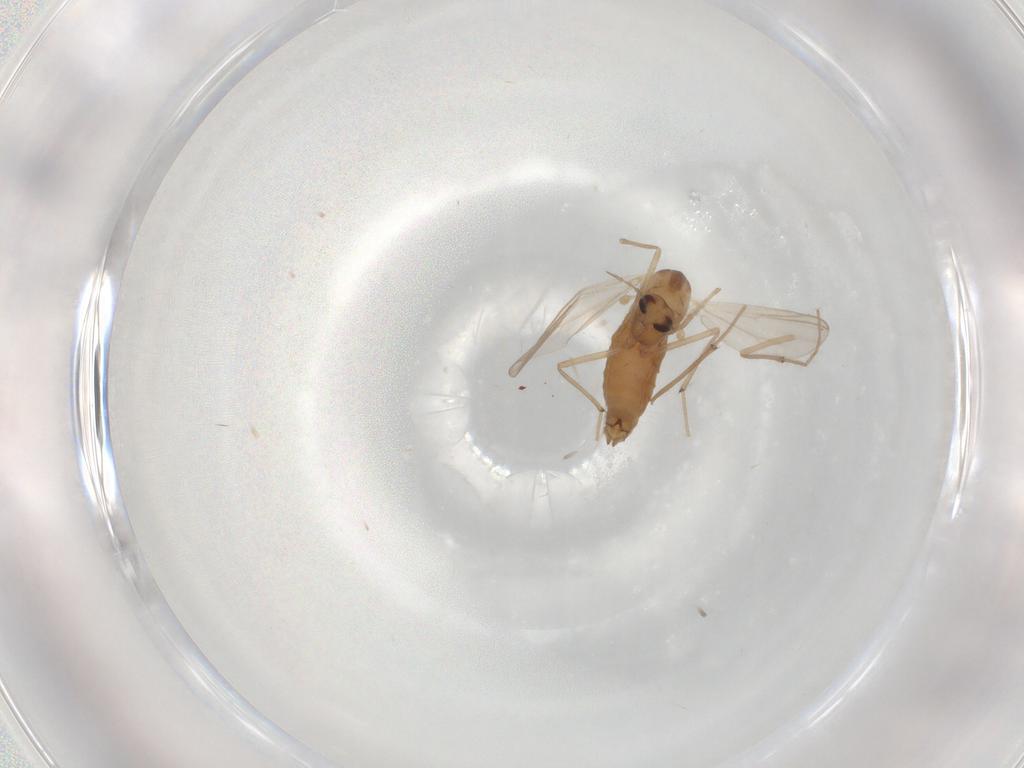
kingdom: Animalia
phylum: Arthropoda
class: Insecta
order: Diptera
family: Chironomidae
